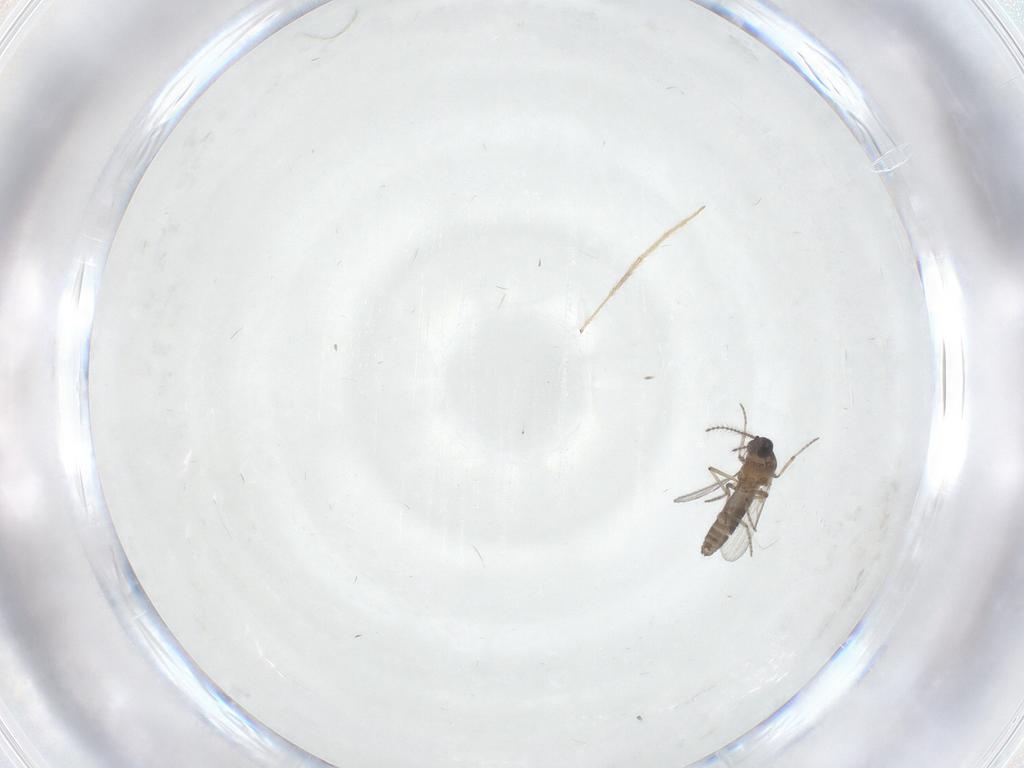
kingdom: Animalia
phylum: Arthropoda
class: Insecta
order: Diptera
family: Chironomidae
